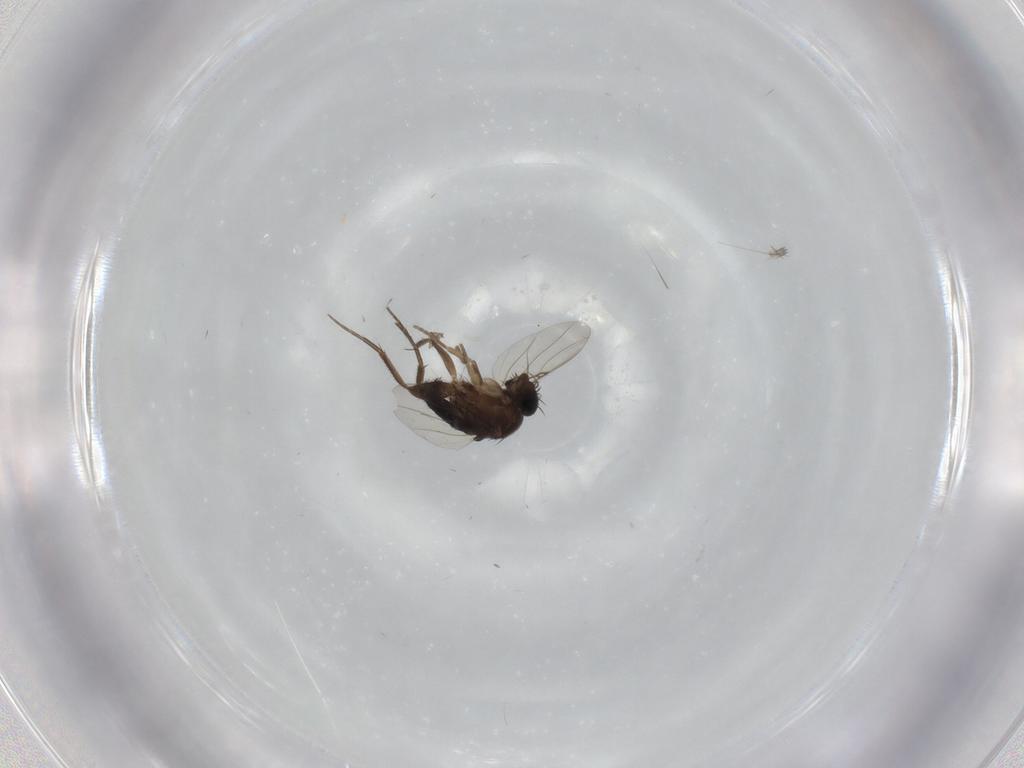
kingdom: Animalia
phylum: Arthropoda
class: Insecta
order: Diptera
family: Phoridae
